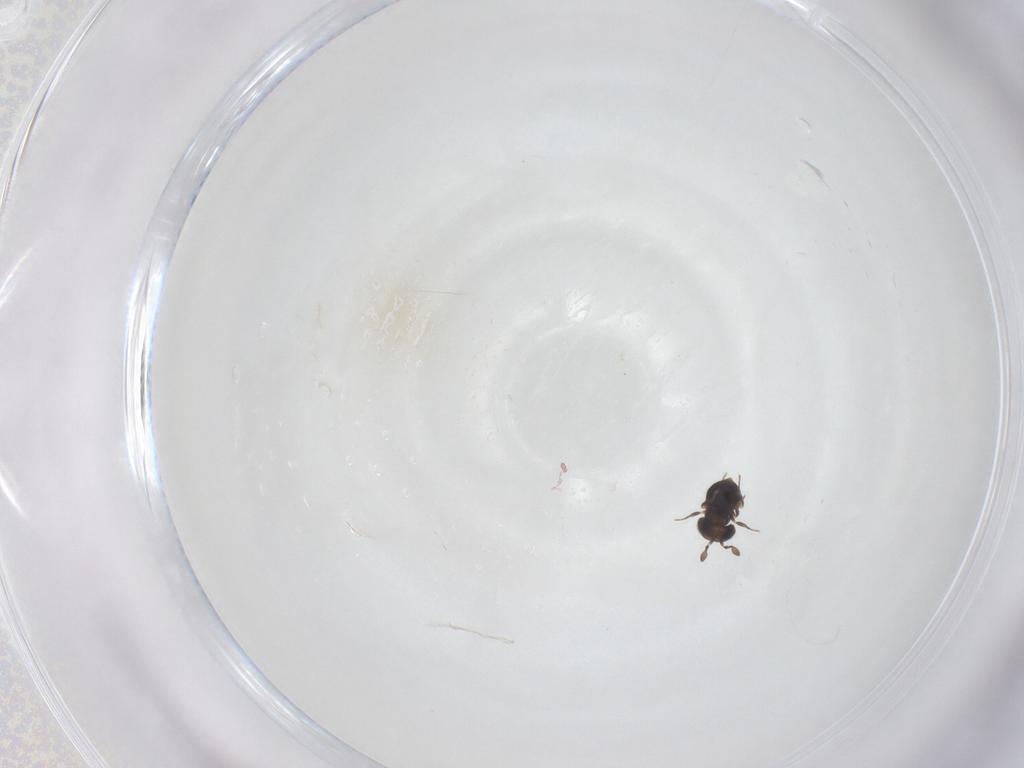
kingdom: Animalia
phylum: Arthropoda
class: Insecta
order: Hymenoptera
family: Scelionidae
